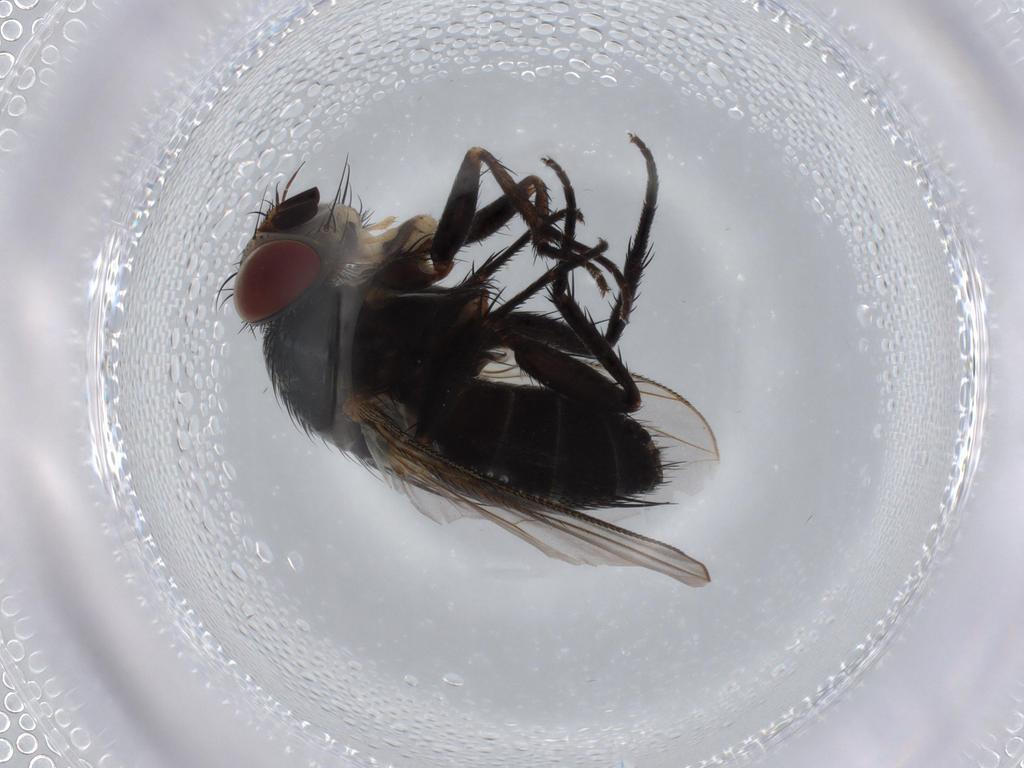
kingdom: Animalia
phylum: Arthropoda
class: Insecta
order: Diptera
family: Tachinidae
